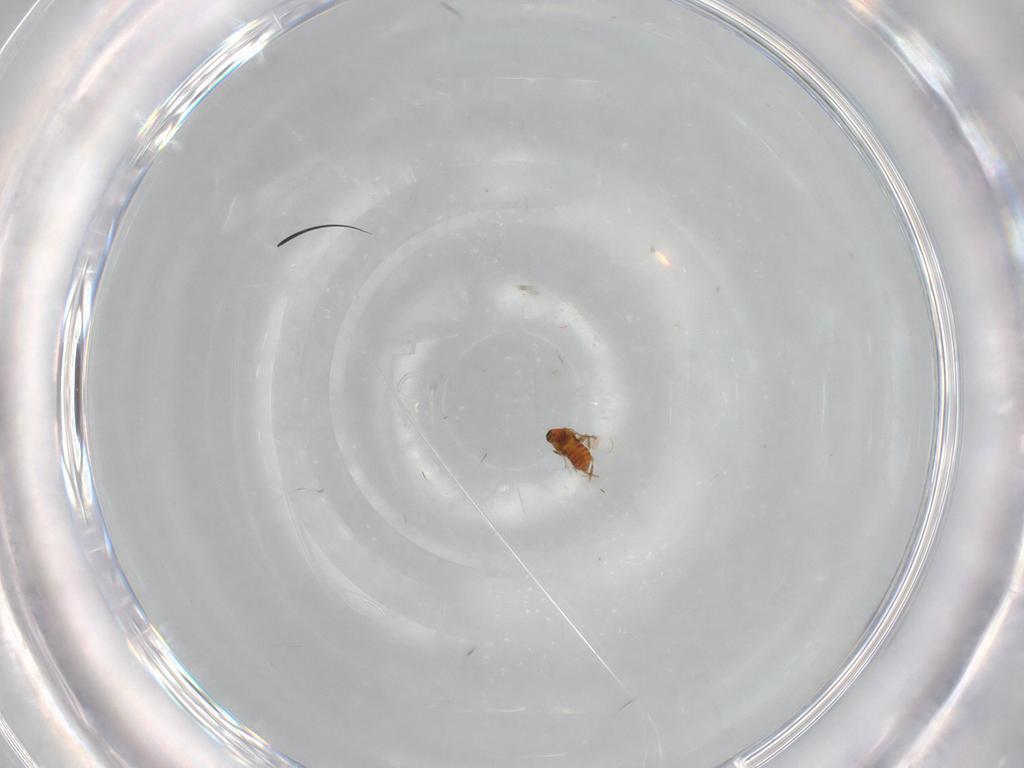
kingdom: Animalia
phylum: Arthropoda
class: Insecta
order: Hymenoptera
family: Trichogrammatidae
